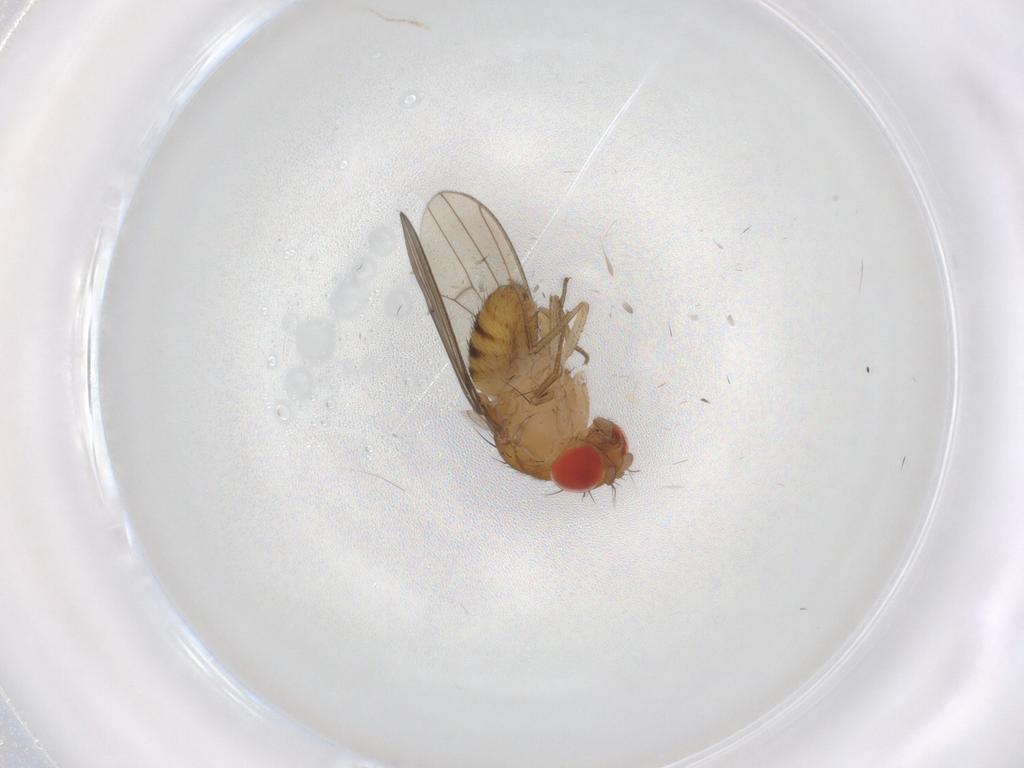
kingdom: Animalia
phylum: Arthropoda
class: Insecta
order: Diptera
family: Drosophilidae
